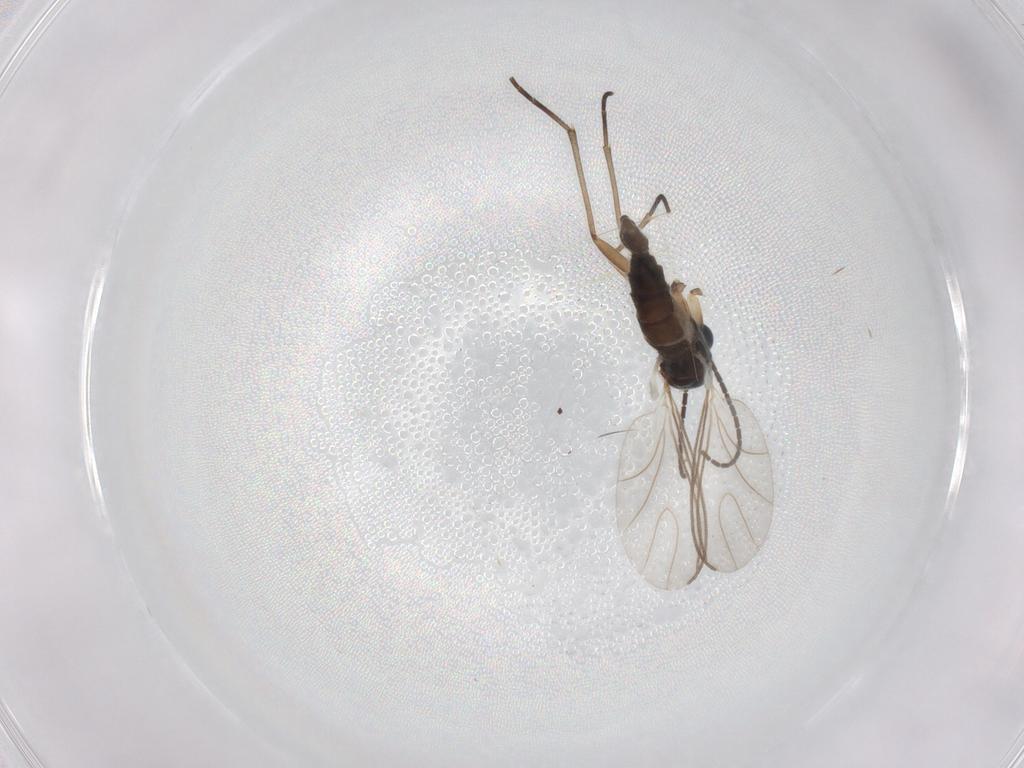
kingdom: Animalia
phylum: Arthropoda
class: Insecta
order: Diptera
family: Sciaridae
